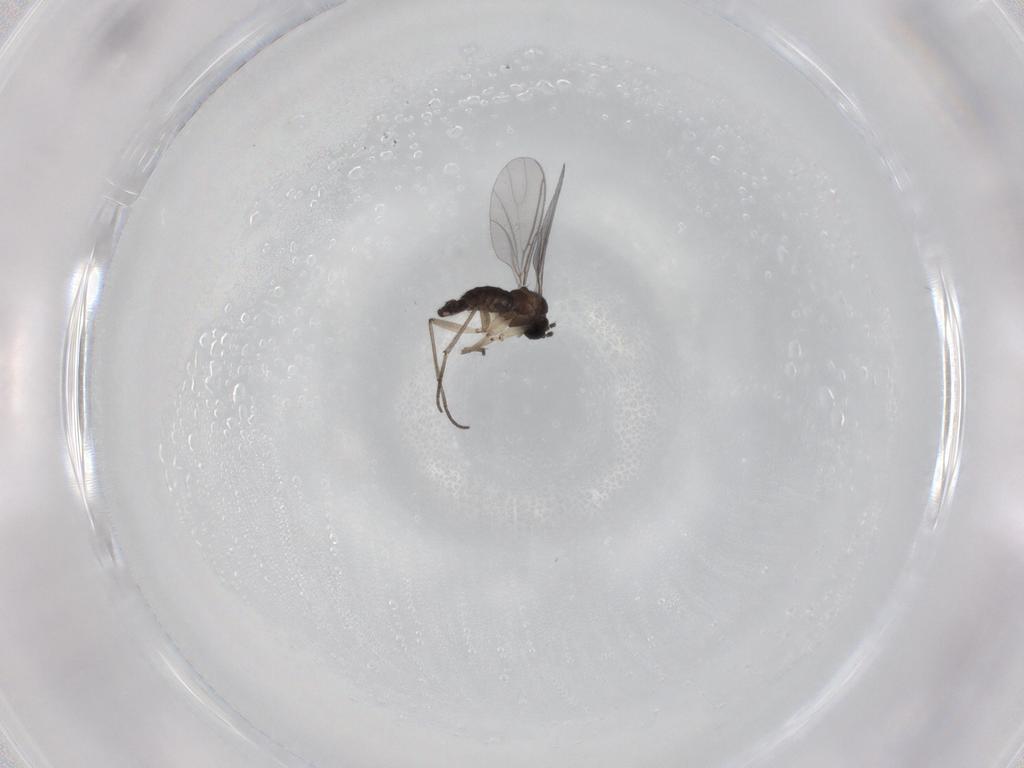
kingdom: Animalia
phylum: Arthropoda
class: Insecta
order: Diptera
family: Sciaridae
